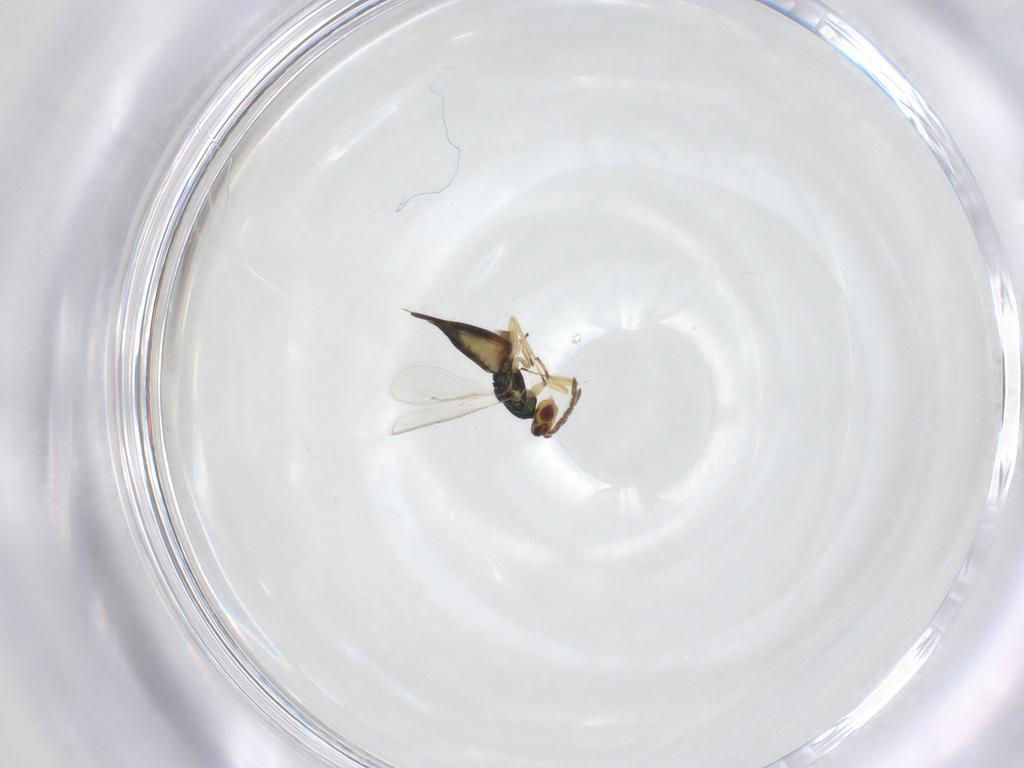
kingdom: Animalia
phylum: Arthropoda
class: Insecta
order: Hymenoptera
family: Eulophidae
